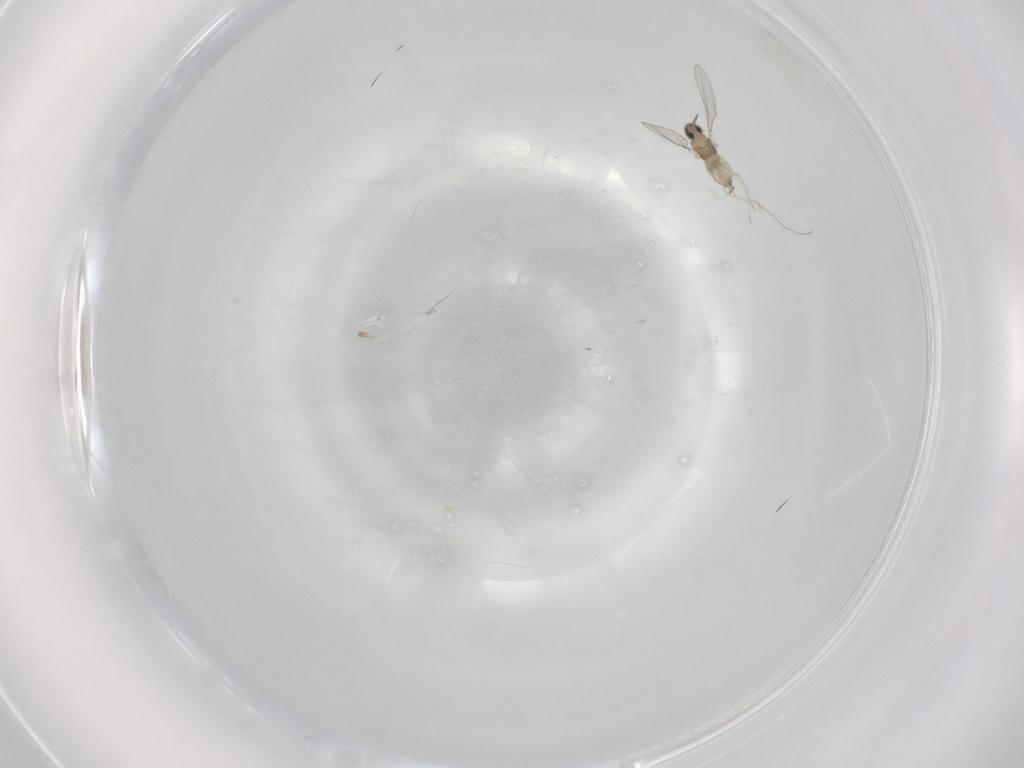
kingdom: Animalia
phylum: Arthropoda
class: Insecta
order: Diptera
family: Cecidomyiidae
